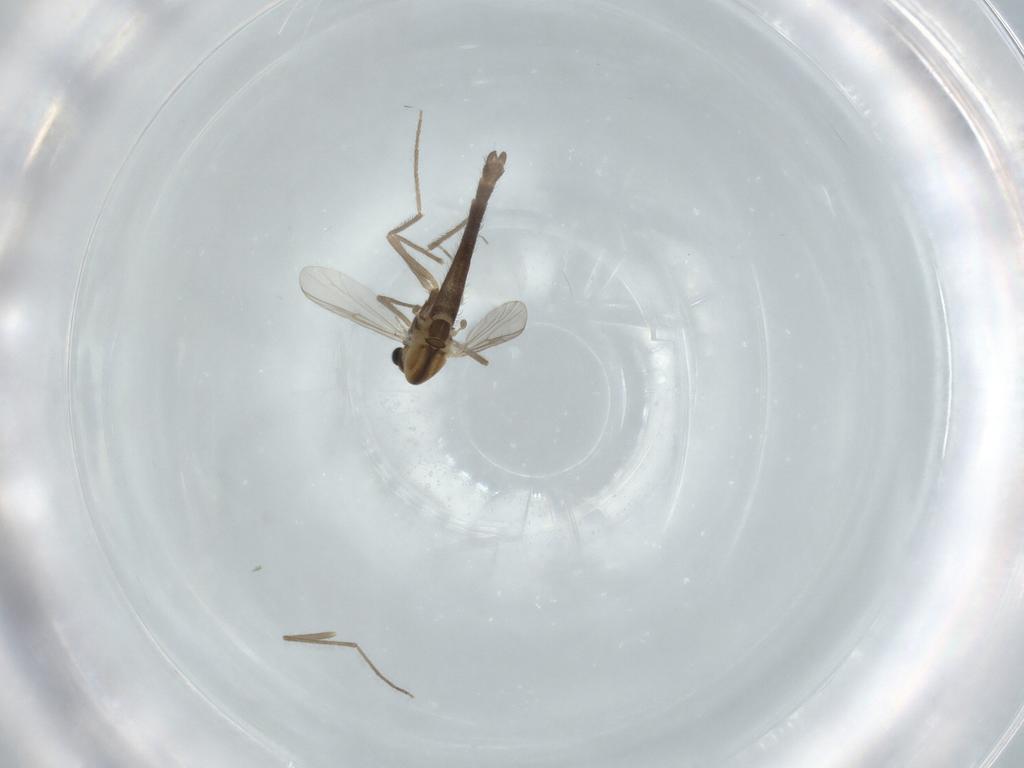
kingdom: Animalia
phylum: Arthropoda
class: Insecta
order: Diptera
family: Chironomidae
